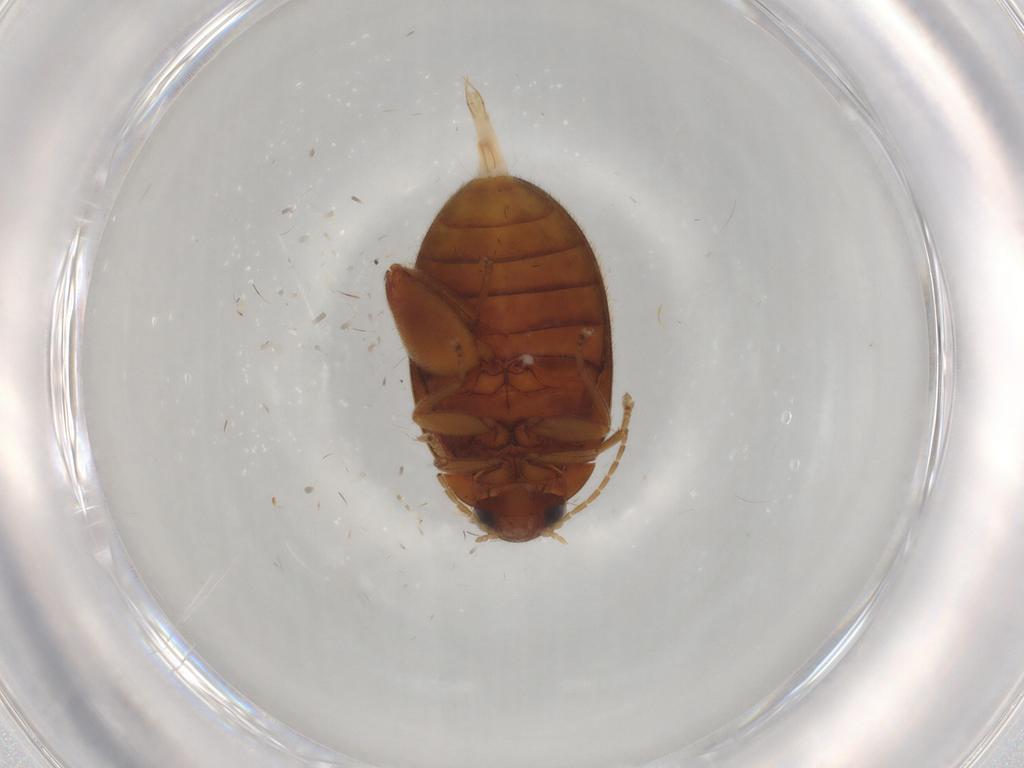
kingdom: Animalia
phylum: Arthropoda
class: Insecta
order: Coleoptera
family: Scirtidae
